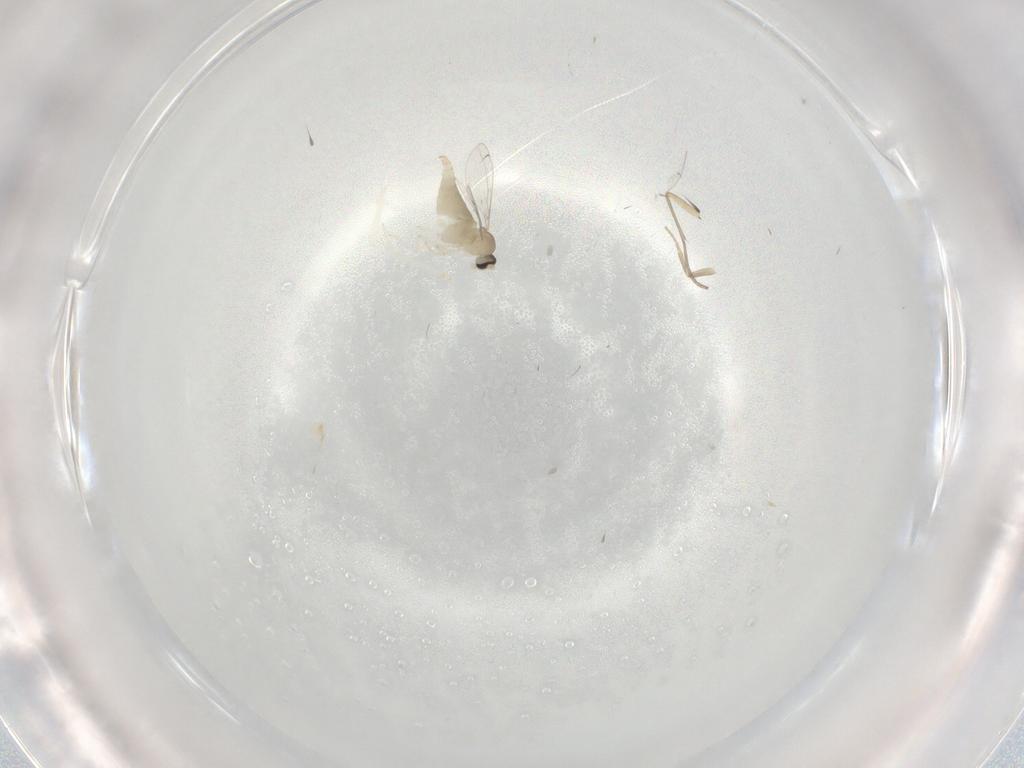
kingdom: Animalia
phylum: Arthropoda
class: Insecta
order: Diptera
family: Cecidomyiidae
